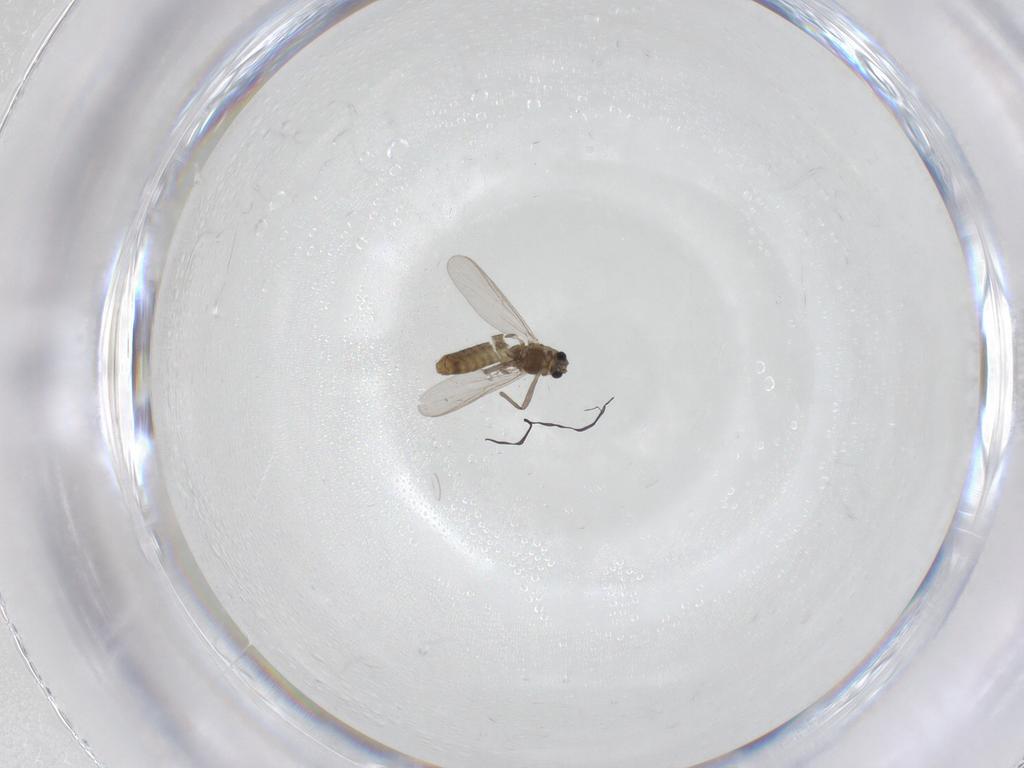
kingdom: Animalia
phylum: Arthropoda
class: Insecta
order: Diptera
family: Chironomidae
